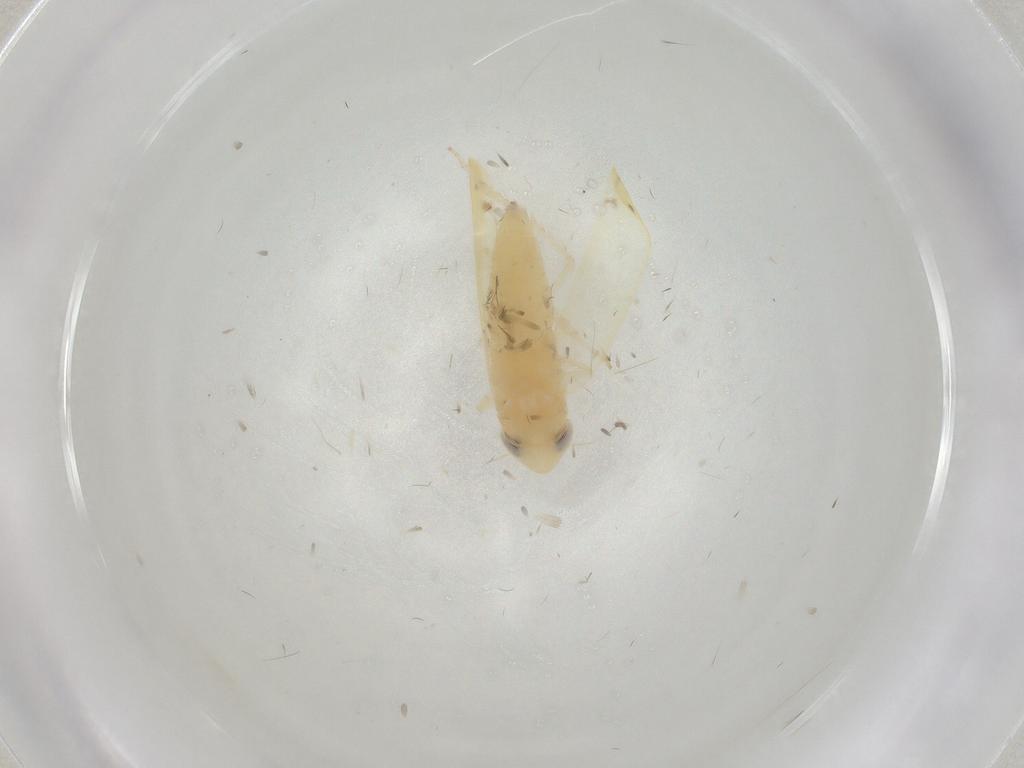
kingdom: Animalia
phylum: Arthropoda
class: Insecta
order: Hemiptera
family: Cicadellidae
